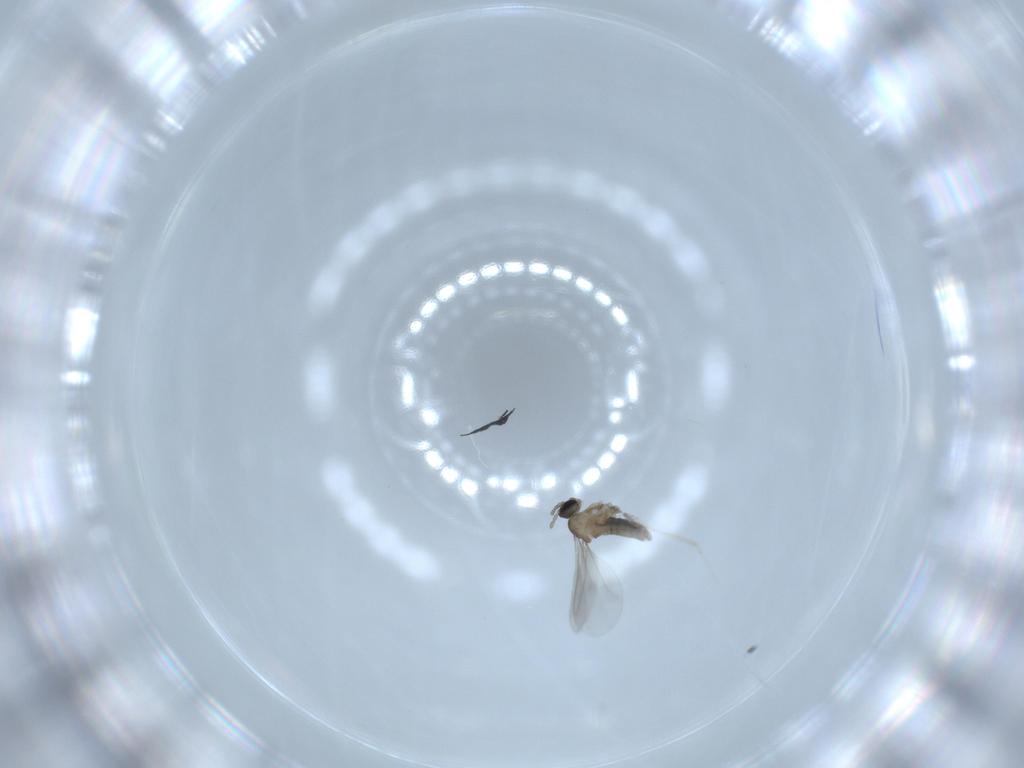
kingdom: Animalia
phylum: Arthropoda
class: Insecta
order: Diptera
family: Cecidomyiidae
